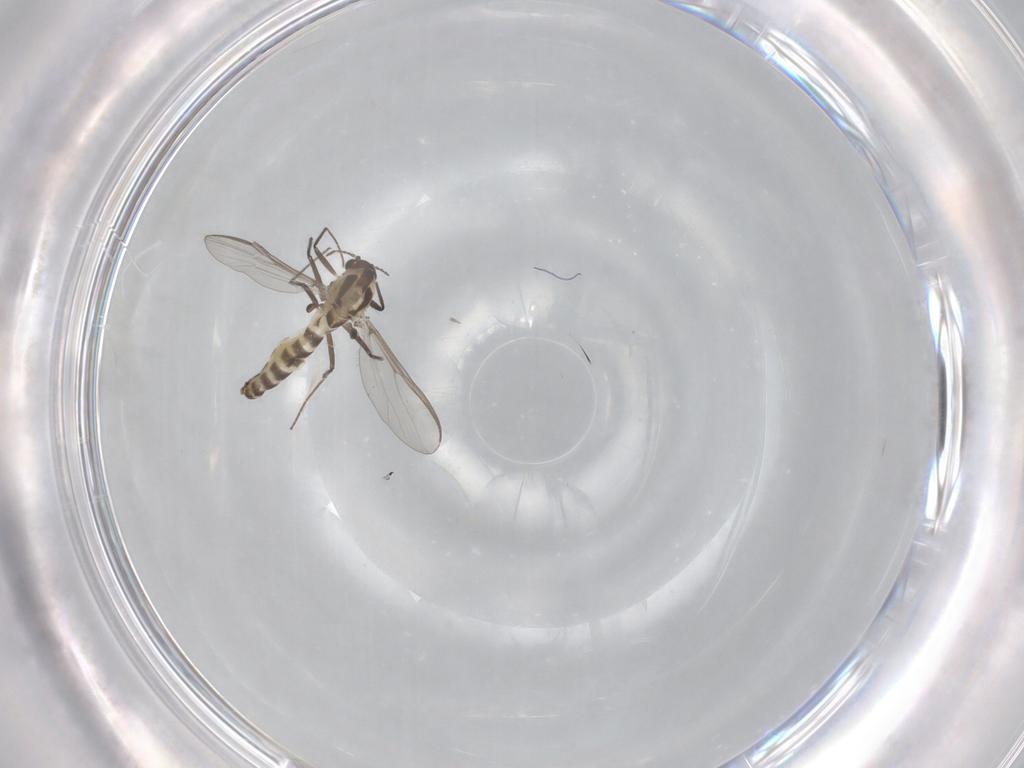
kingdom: Animalia
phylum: Arthropoda
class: Insecta
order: Diptera
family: Chironomidae
